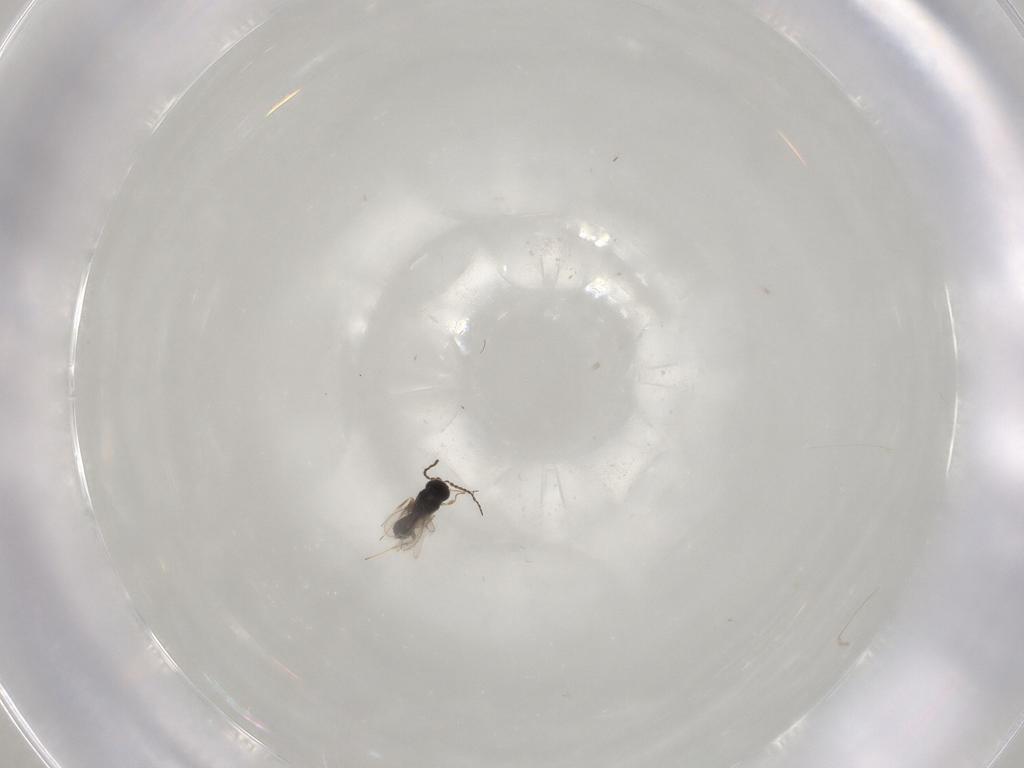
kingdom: Animalia
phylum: Arthropoda
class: Insecta
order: Hymenoptera
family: Scelionidae
